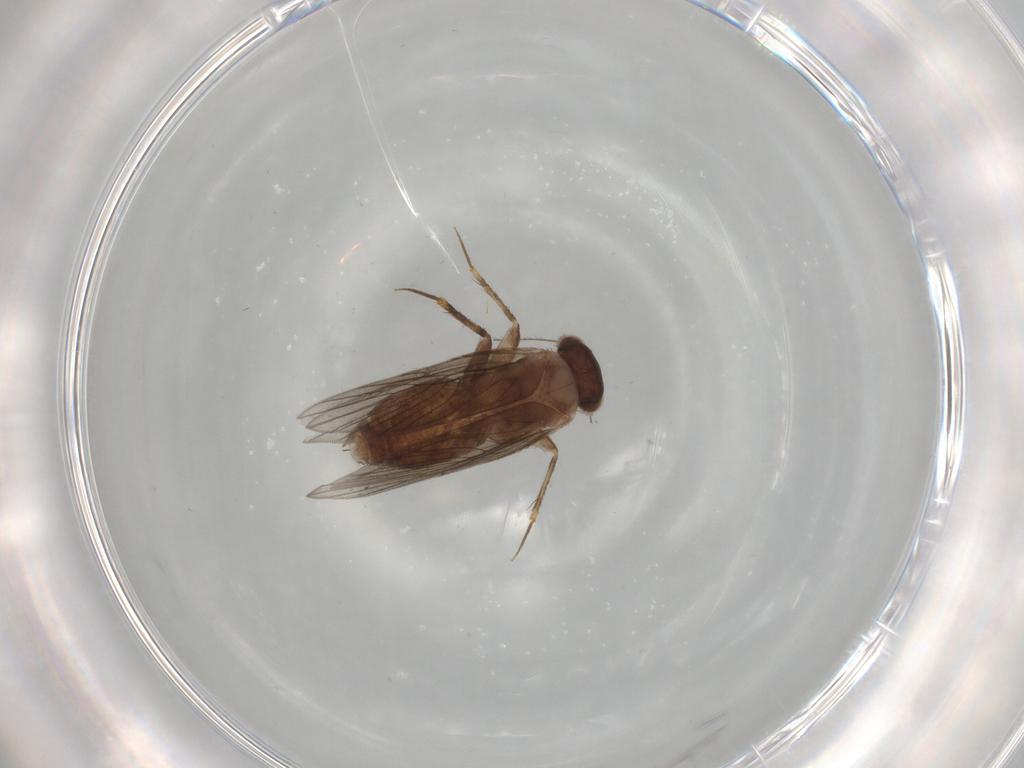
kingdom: Animalia
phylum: Arthropoda
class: Insecta
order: Psocodea
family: Lepidopsocidae
